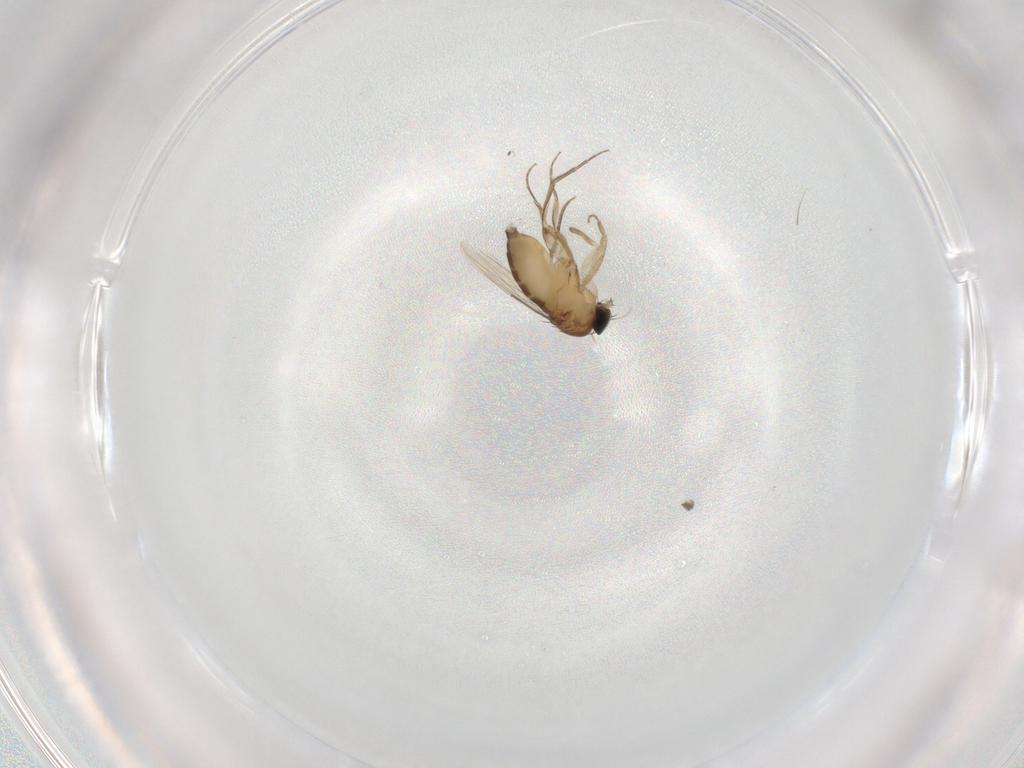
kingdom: Animalia
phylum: Arthropoda
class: Insecta
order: Diptera
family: Phoridae
